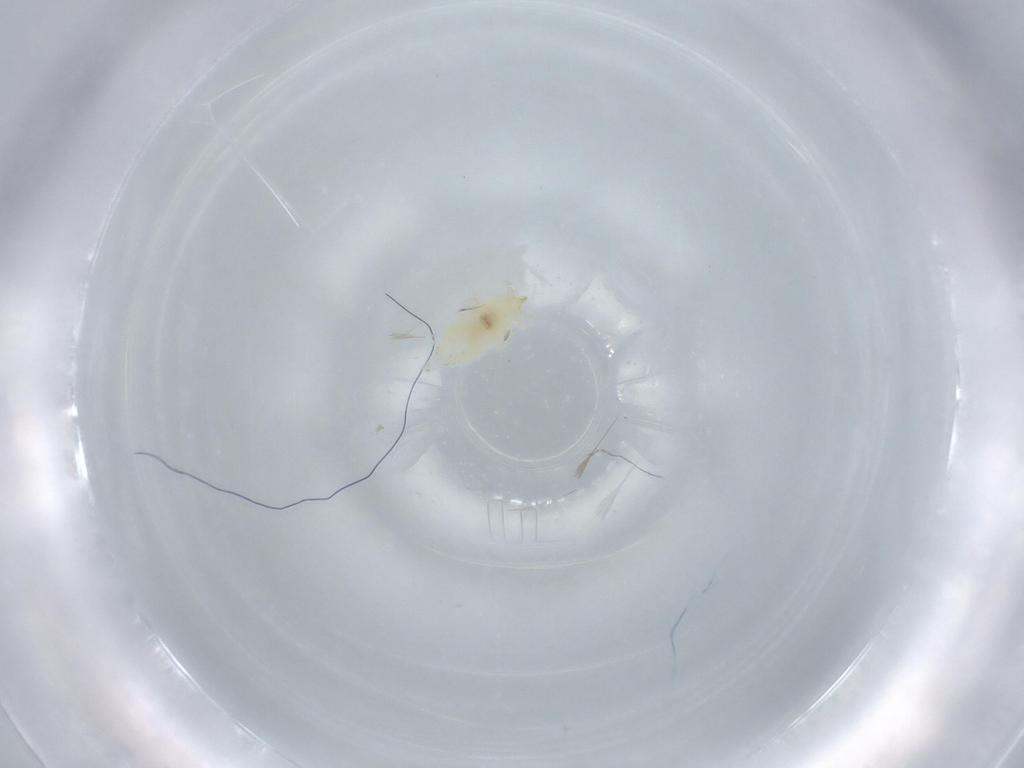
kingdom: Animalia
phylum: Arthropoda
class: Insecta
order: Neuroptera
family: Coniopterygidae
